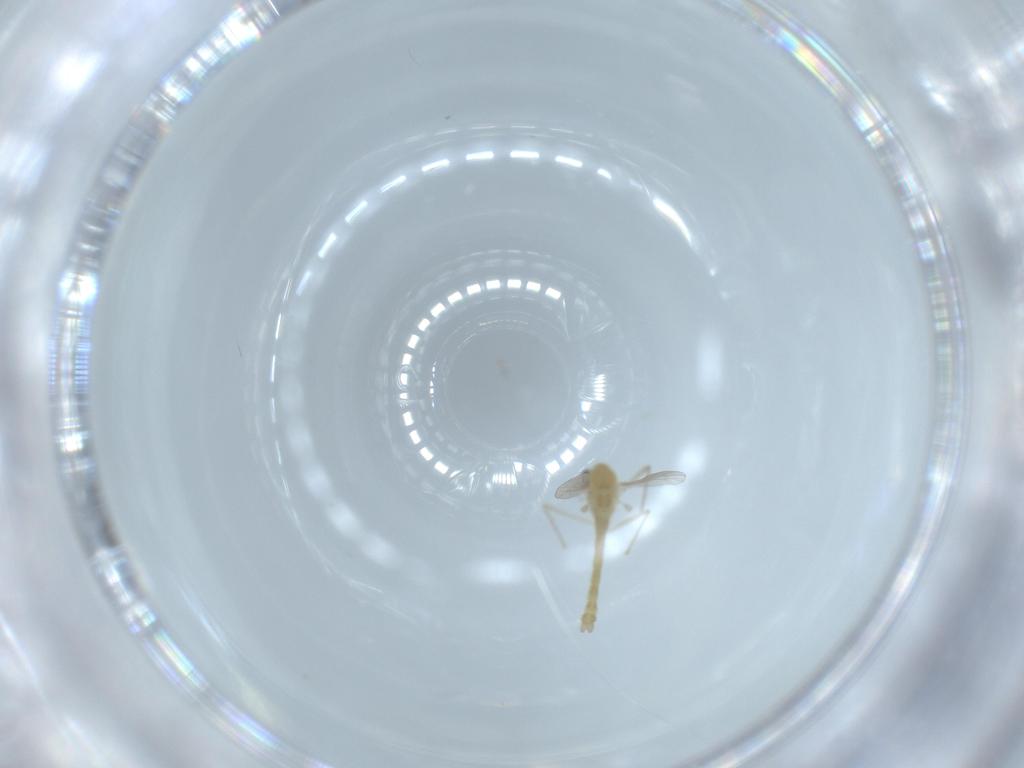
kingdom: Animalia
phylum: Arthropoda
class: Insecta
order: Diptera
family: Chironomidae
